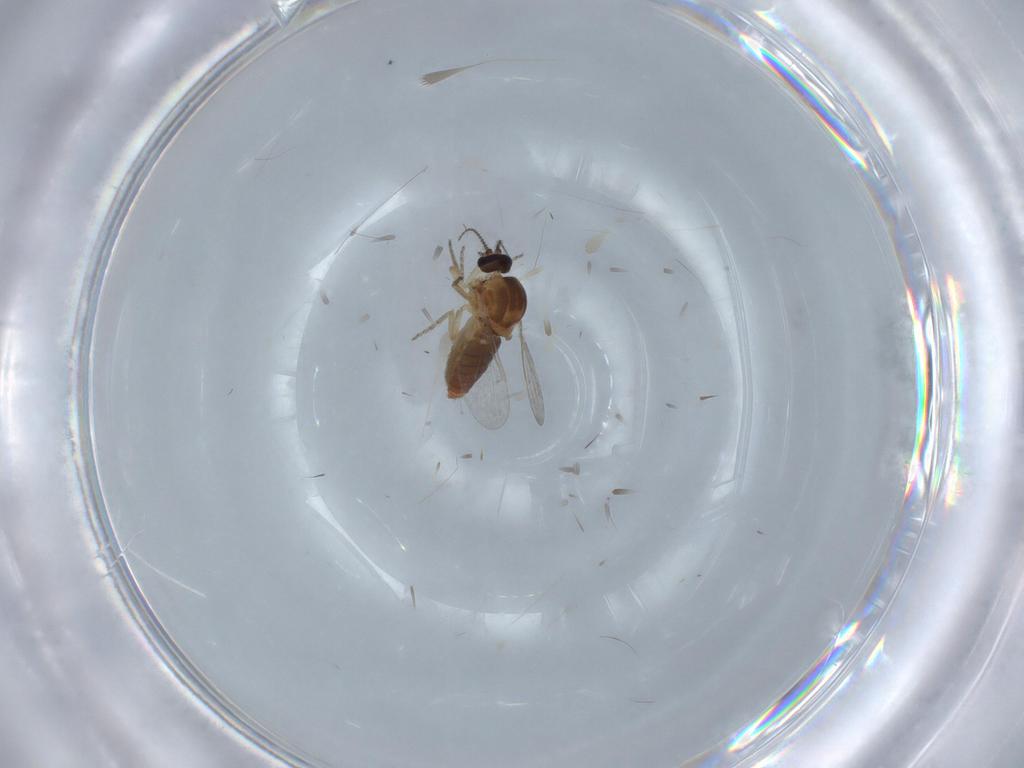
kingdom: Animalia
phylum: Arthropoda
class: Insecta
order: Diptera
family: Ceratopogonidae
